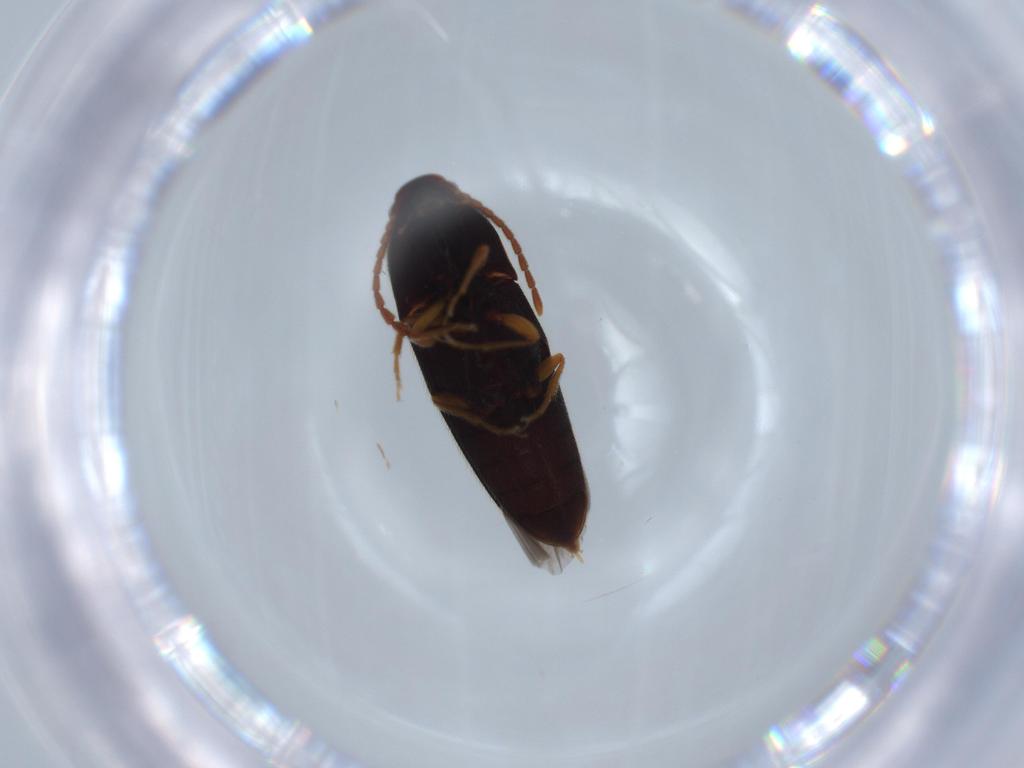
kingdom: Animalia
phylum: Arthropoda
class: Insecta
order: Coleoptera
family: Elateridae
